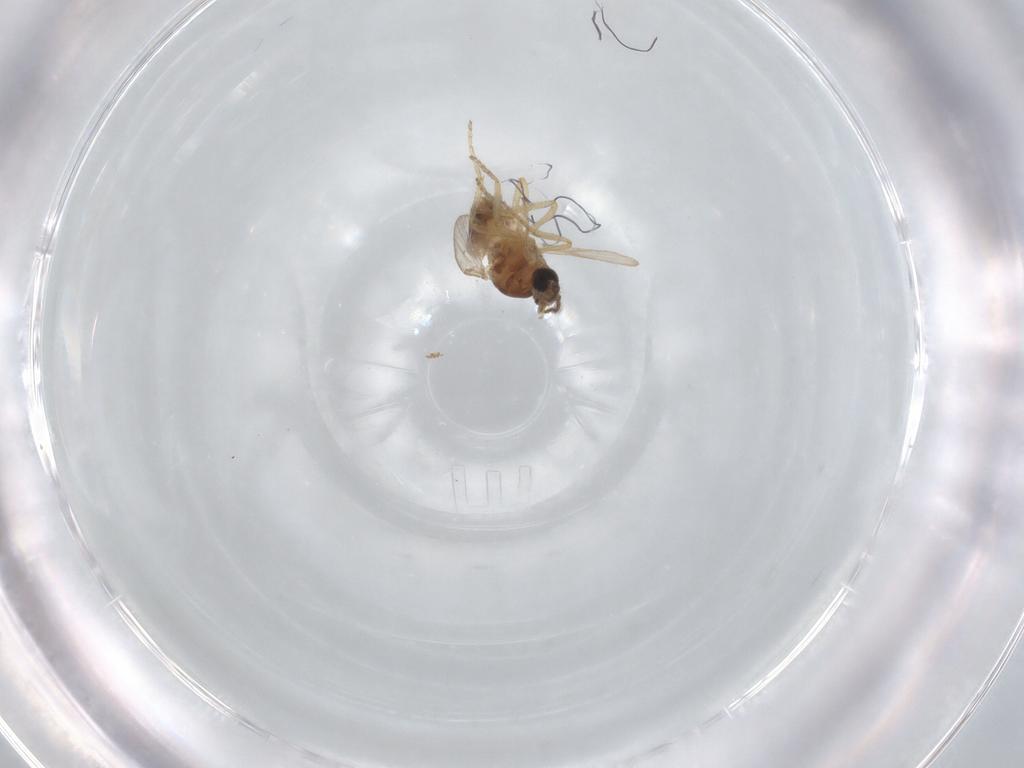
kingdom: Animalia
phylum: Arthropoda
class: Insecta
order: Diptera
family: Ceratopogonidae
